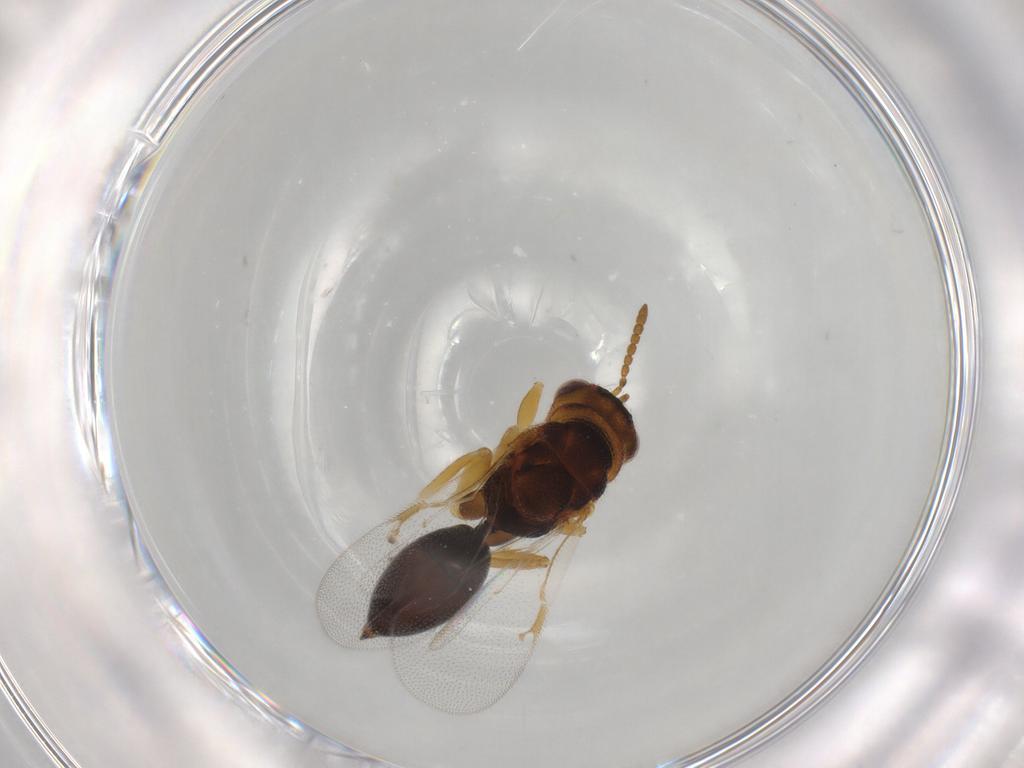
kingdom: Animalia
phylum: Arthropoda
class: Insecta
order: Hymenoptera
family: Eurytomidae
